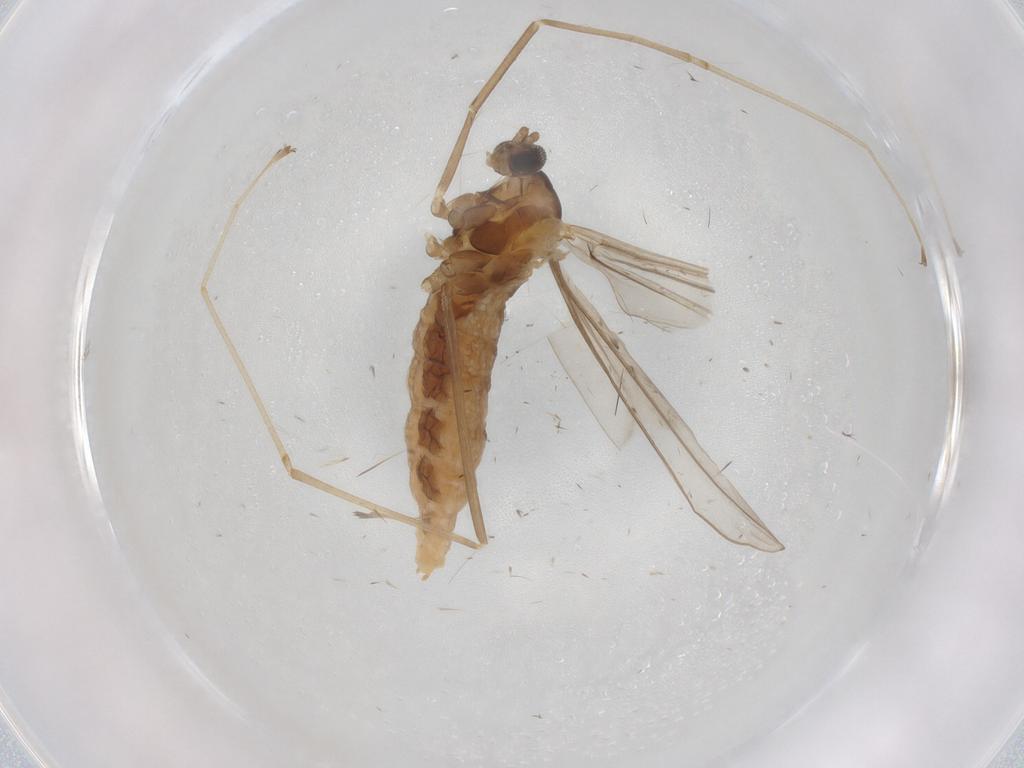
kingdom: Animalia
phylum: Arthropoda
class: Insecta
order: Diptera
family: Cecidomyiidae
